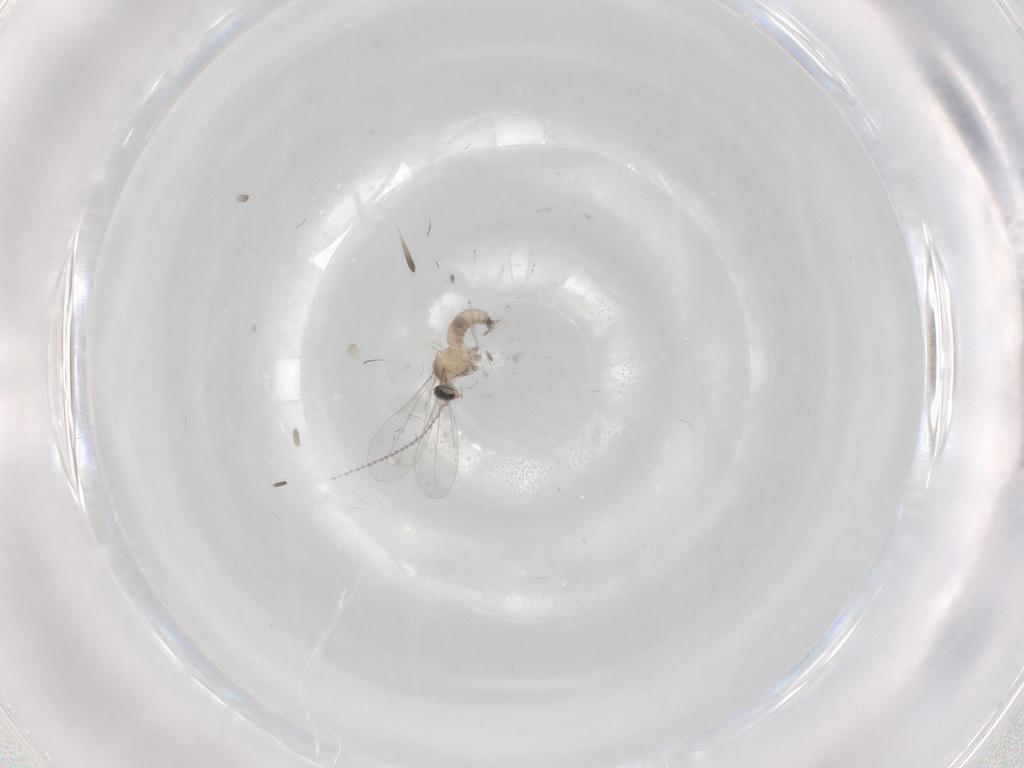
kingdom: Animalia
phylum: Arthropoda
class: Insecta
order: Diptera
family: Cecidomyiidae
